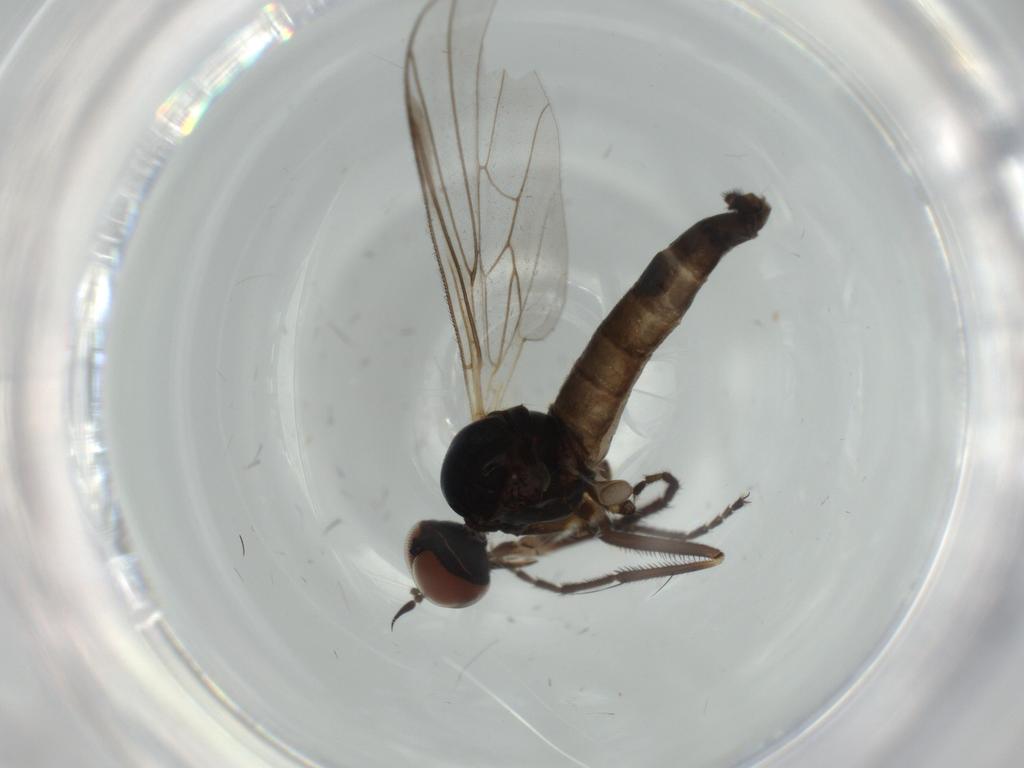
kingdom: Animalia
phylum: Arthropoda
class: Insecta
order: Diptera
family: Empididae
